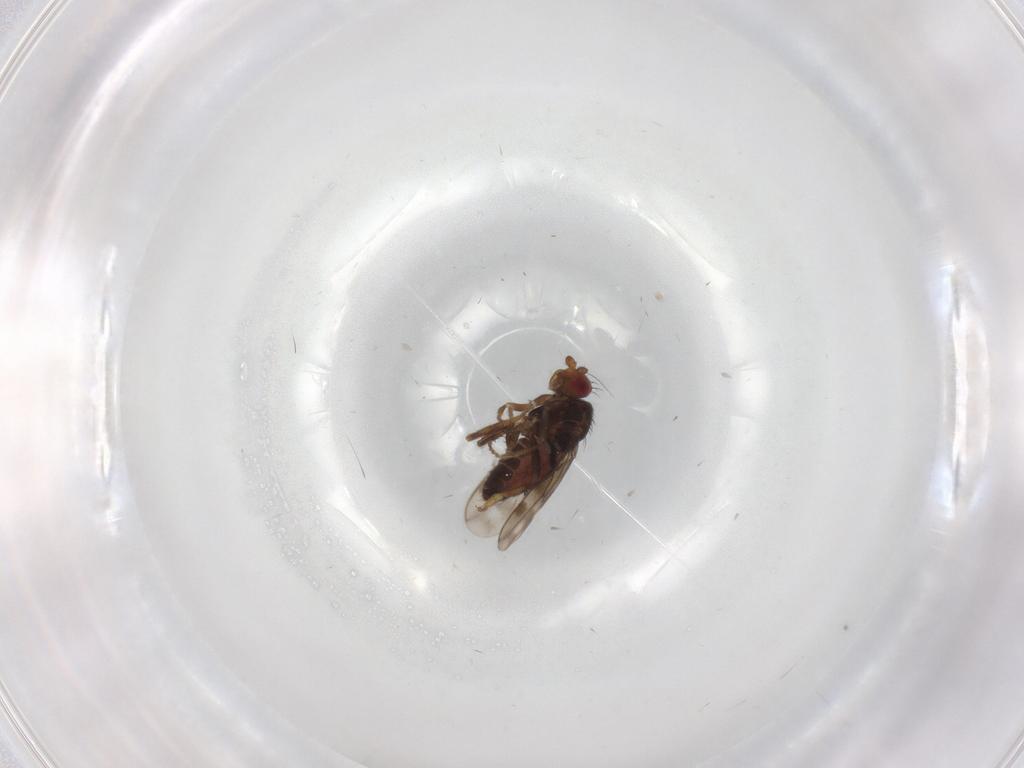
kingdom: Animalia
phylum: Arthropoda
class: Insecta
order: Diptera
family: Sphaeroceridae
